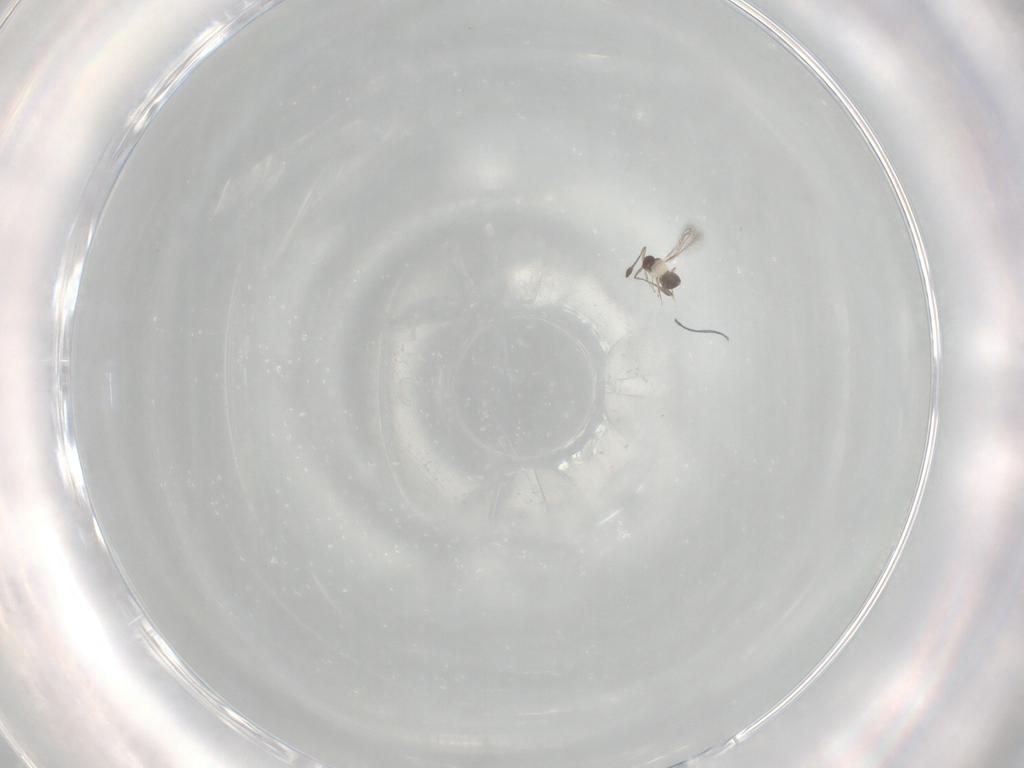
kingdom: Animalia
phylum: Arthropoda
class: Insecta
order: Hymenoptera
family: Mymaridae
